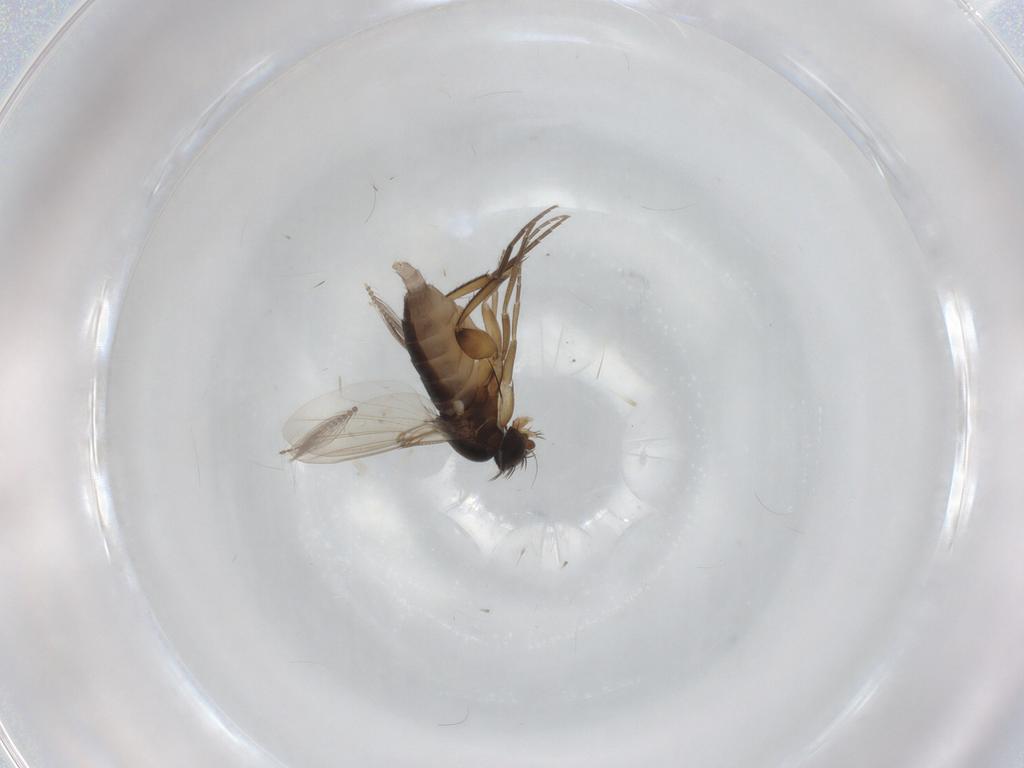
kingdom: Animalia
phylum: Arthropoda
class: Insecta
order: Diptera
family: Phoridae
